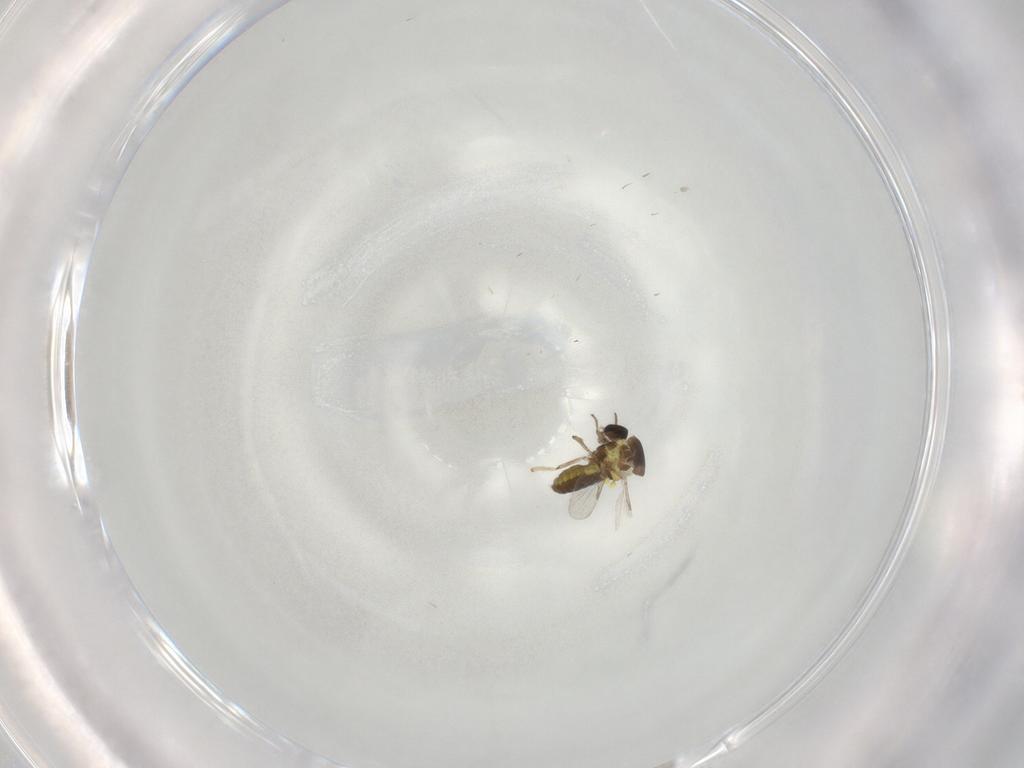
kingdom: Animalia
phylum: Arthropoda
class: Insecta
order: Diptera
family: Ceratopogonidae
